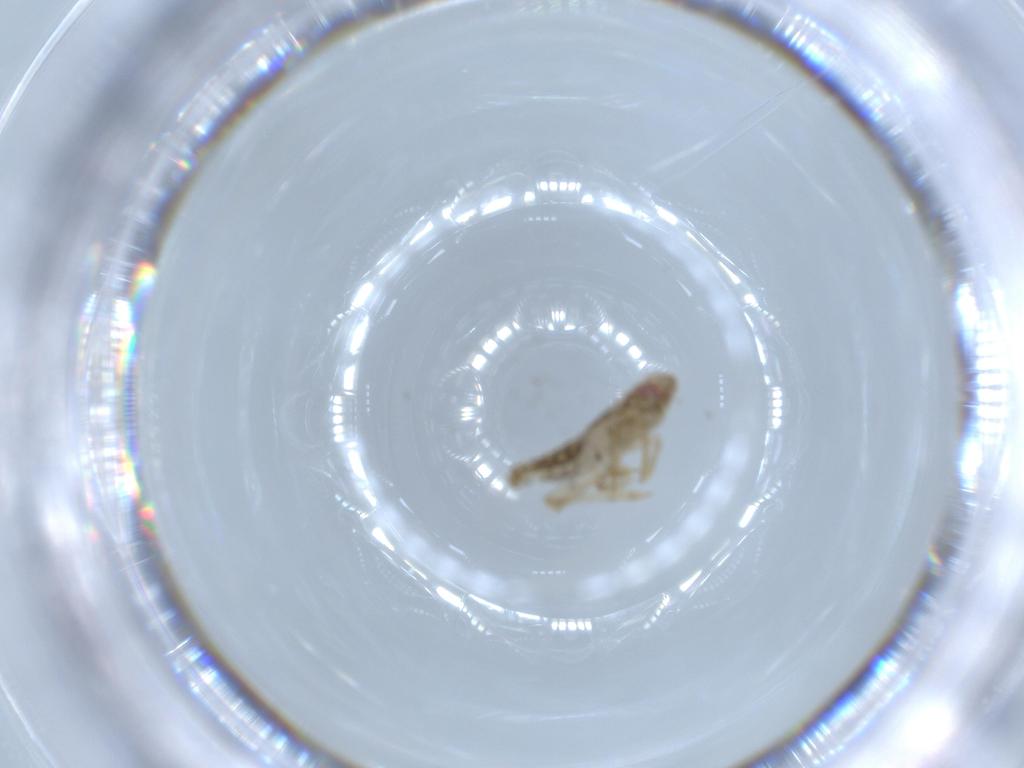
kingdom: Animalia
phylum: Arthropoda
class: Insecta
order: Hemiptera
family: Delphacidae
